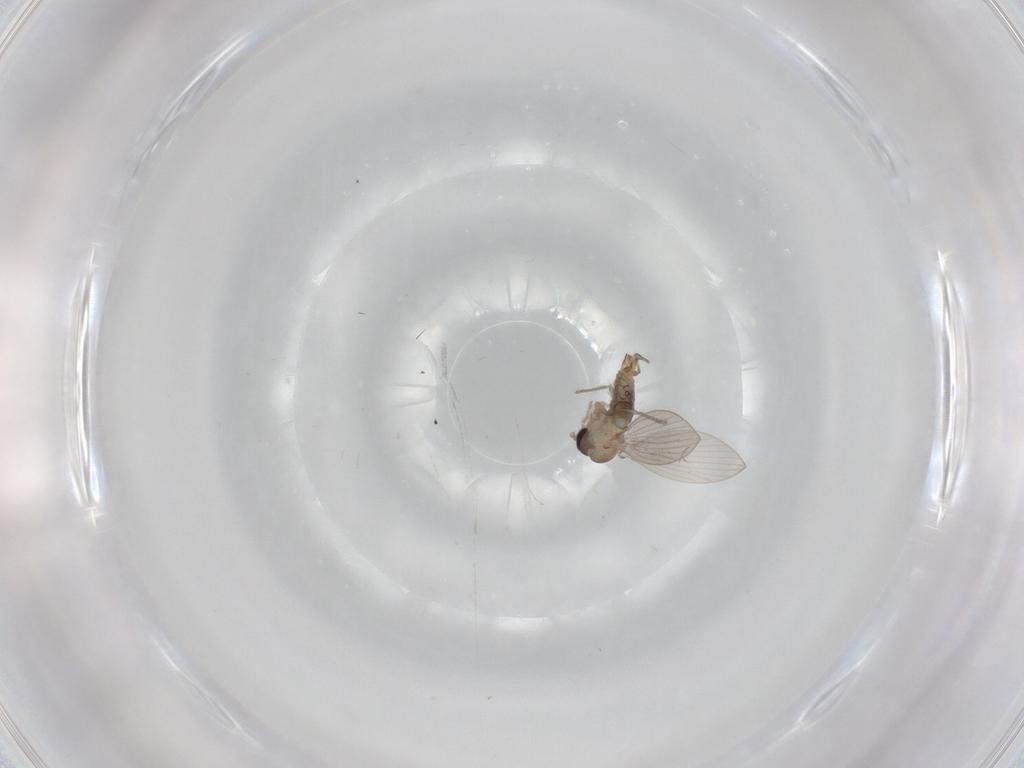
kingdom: Animalia
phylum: Arthropoda
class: Insecta
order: Diptera
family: Psychodidae
